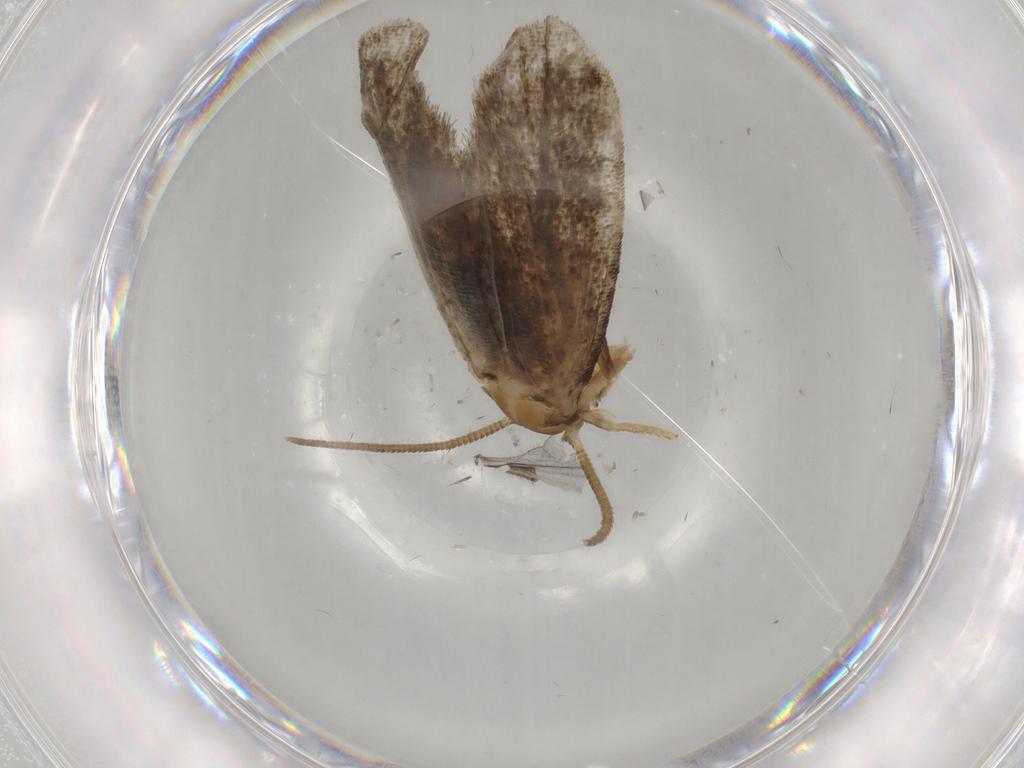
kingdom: Animalia
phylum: Arthropoda
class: Insecta
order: Lepidoptera
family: Dryadaulidae
